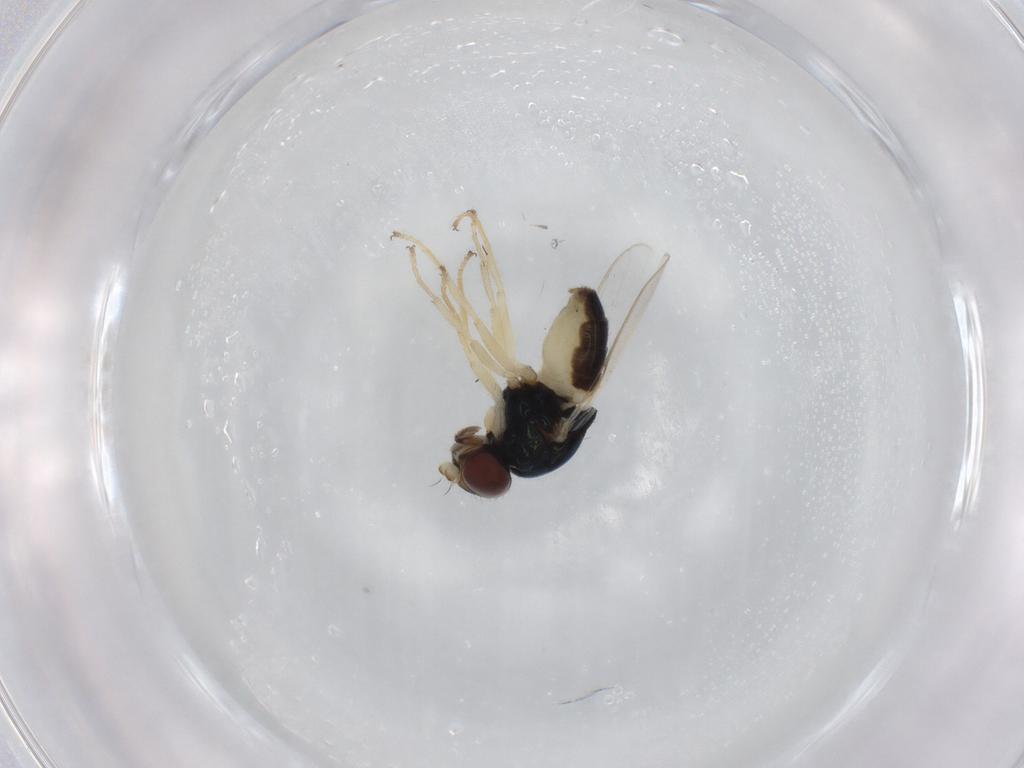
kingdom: Animalia
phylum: Arthropoda
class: Insecta
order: Diptera
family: Chloropidae
